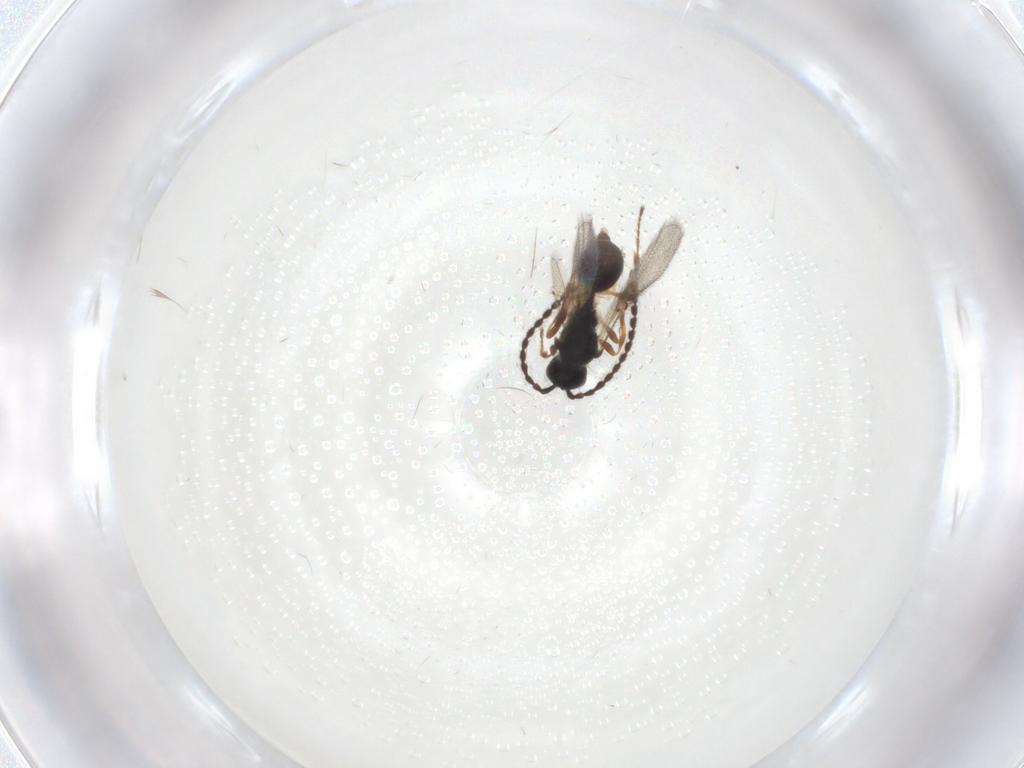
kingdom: Animalia
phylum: Arthropoda
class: Insecta
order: Hymenoptera
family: Diapriidae
